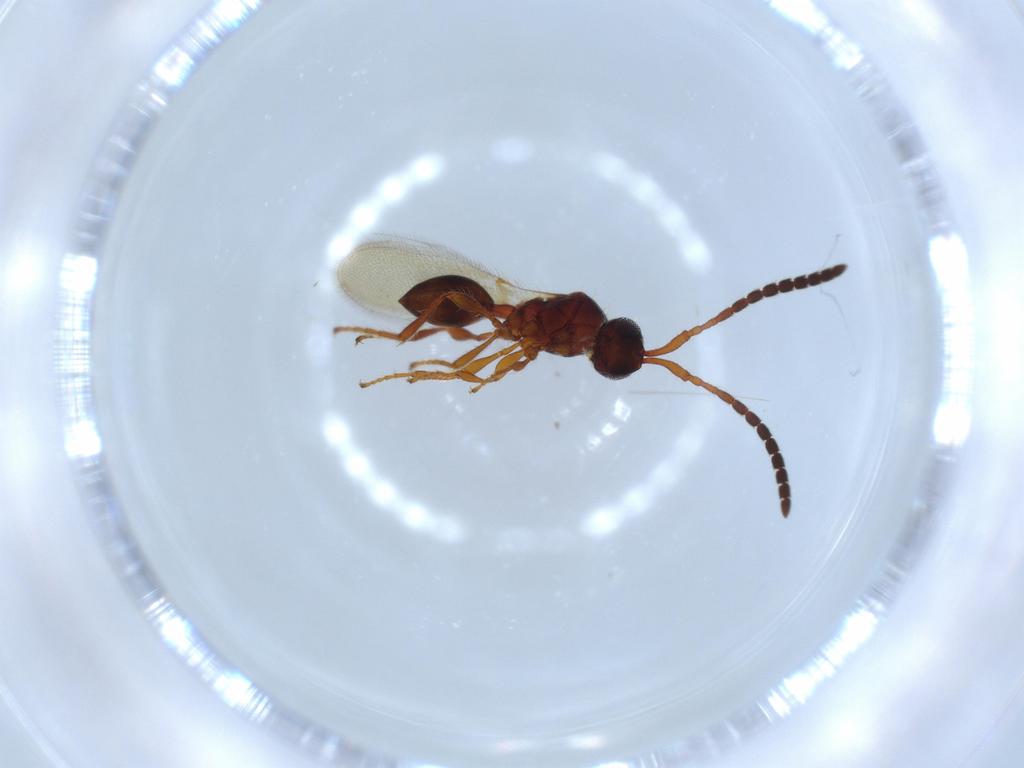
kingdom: Animalia
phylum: Arthropoda
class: Insecta
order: Hymenoptera
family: Diapriidae
